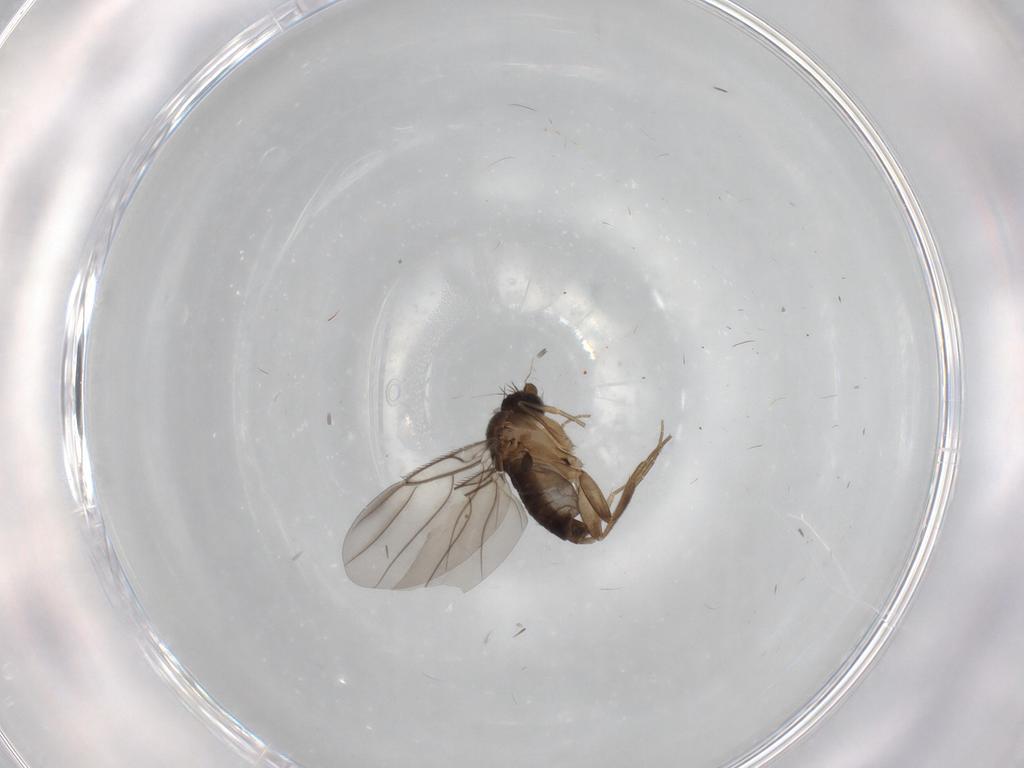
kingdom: Animalia
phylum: Arthropoda
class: Insecta
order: Diptera
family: Phoridae
